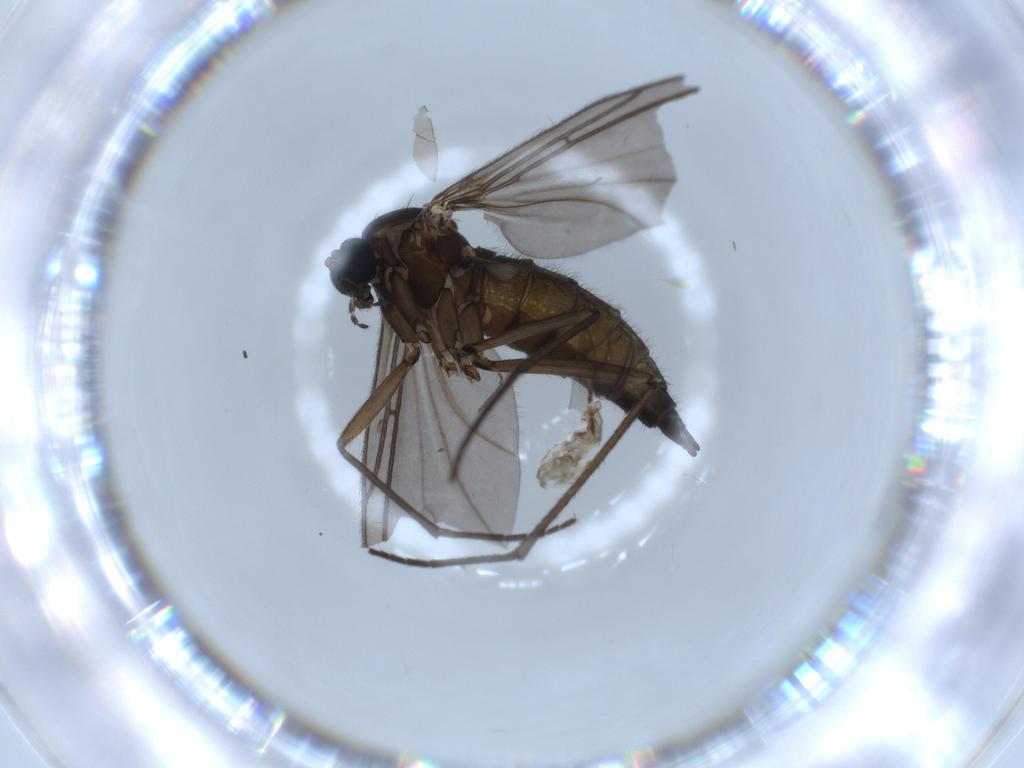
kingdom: Animalia
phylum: Arthropoda
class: Insecta
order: Diptera
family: Sciaridae
